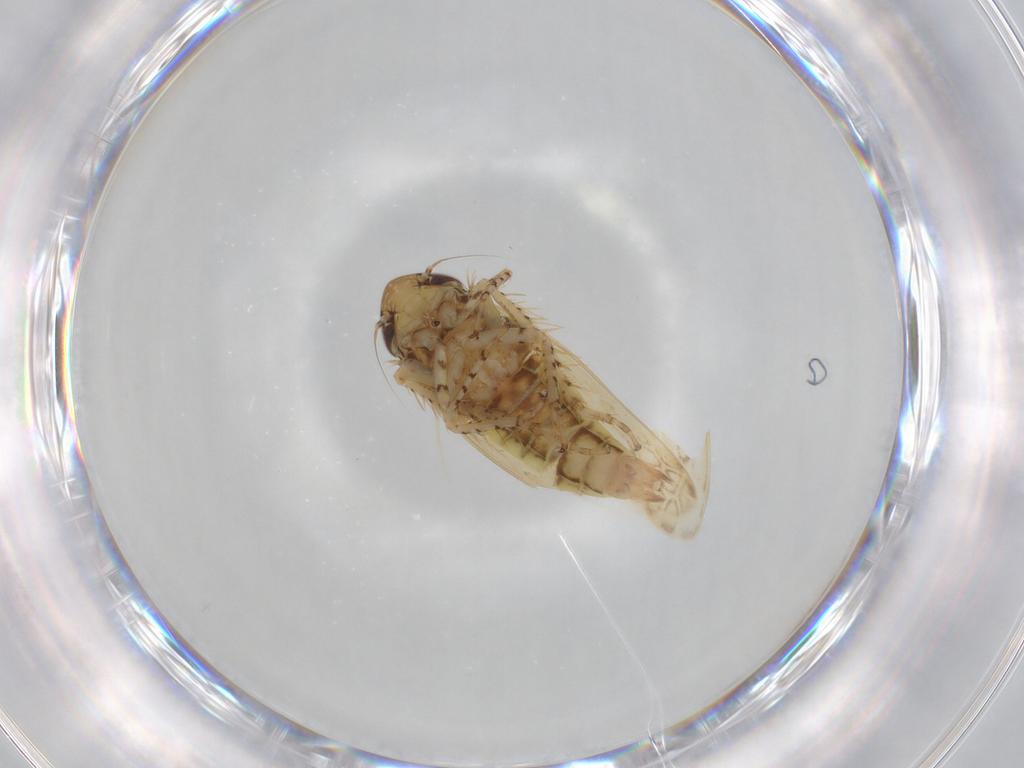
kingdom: Animalia
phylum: Arthropoda
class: Insecta
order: Hemiptera
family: Cicadellidae
